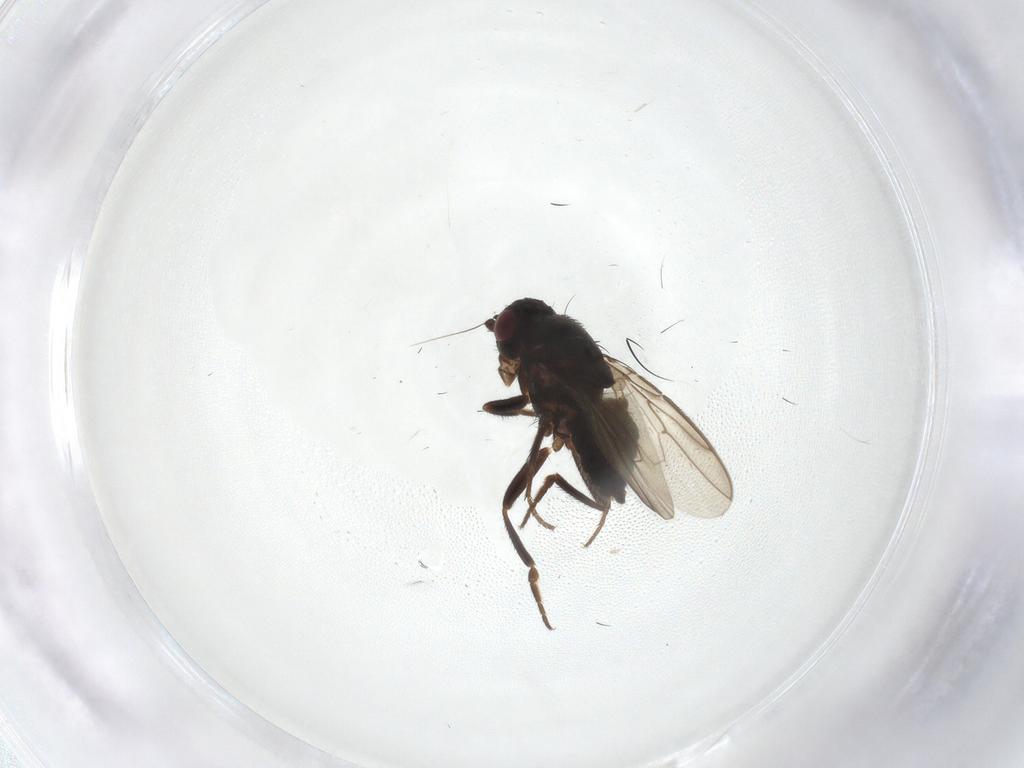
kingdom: Animalia
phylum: Arthropoda
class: Insecta
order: Diptera
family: Sphaeroceridae
